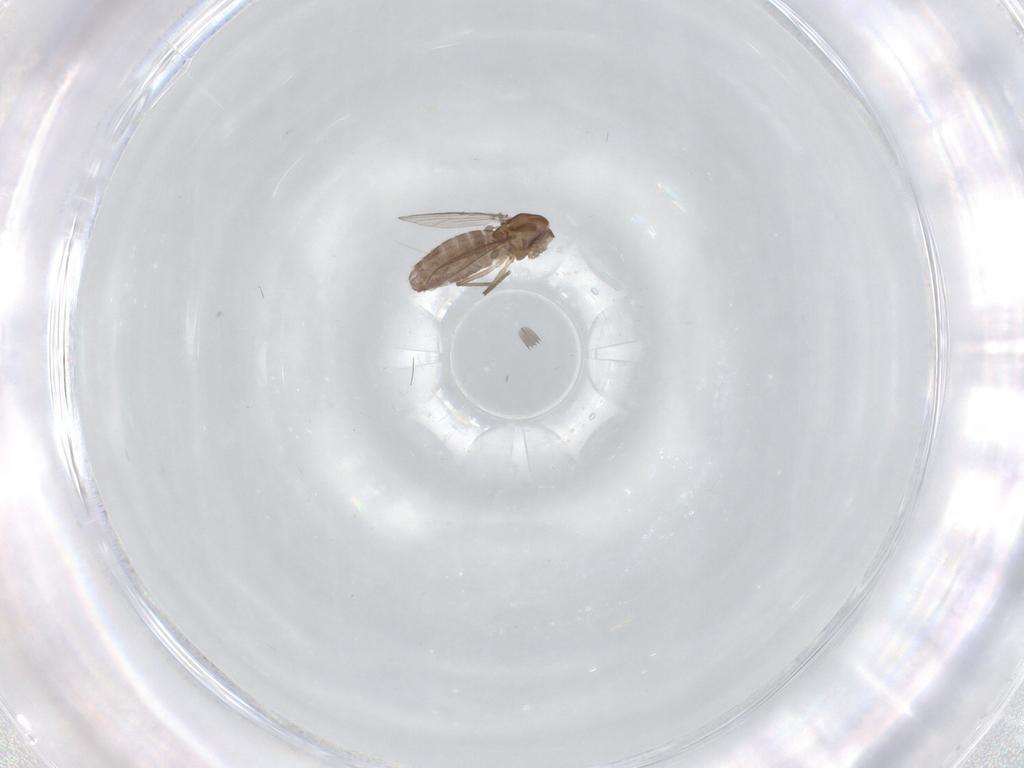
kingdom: Animalia
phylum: Arthropoda
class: Insecta
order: Diptera
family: Chironomidae
